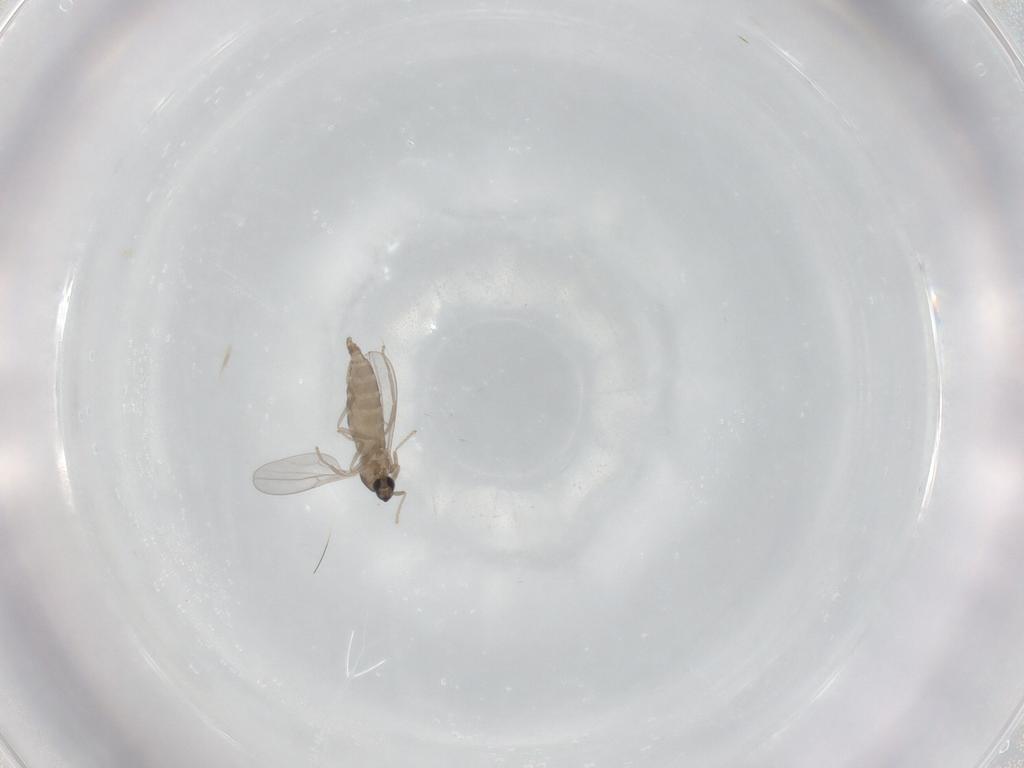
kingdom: Animalia
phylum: Arthropoda
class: Insecta
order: Diptera
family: Cecidomyiidae
